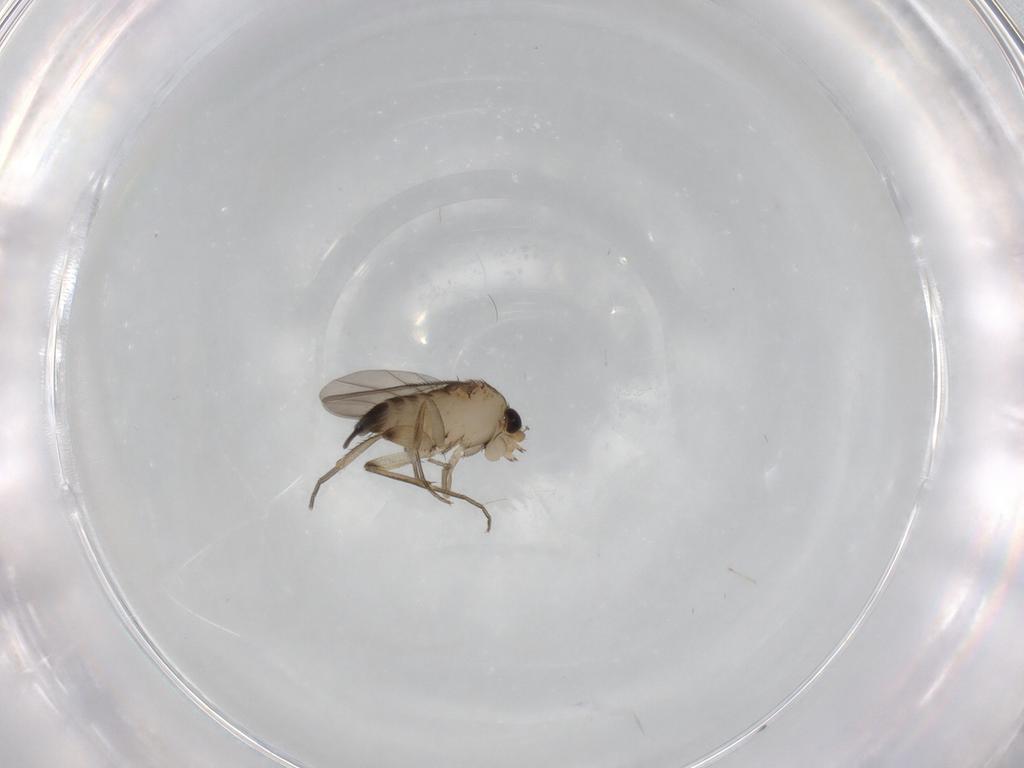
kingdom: Animalia
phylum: Arthropoda
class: Insecta
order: Diptera
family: Phoridae
